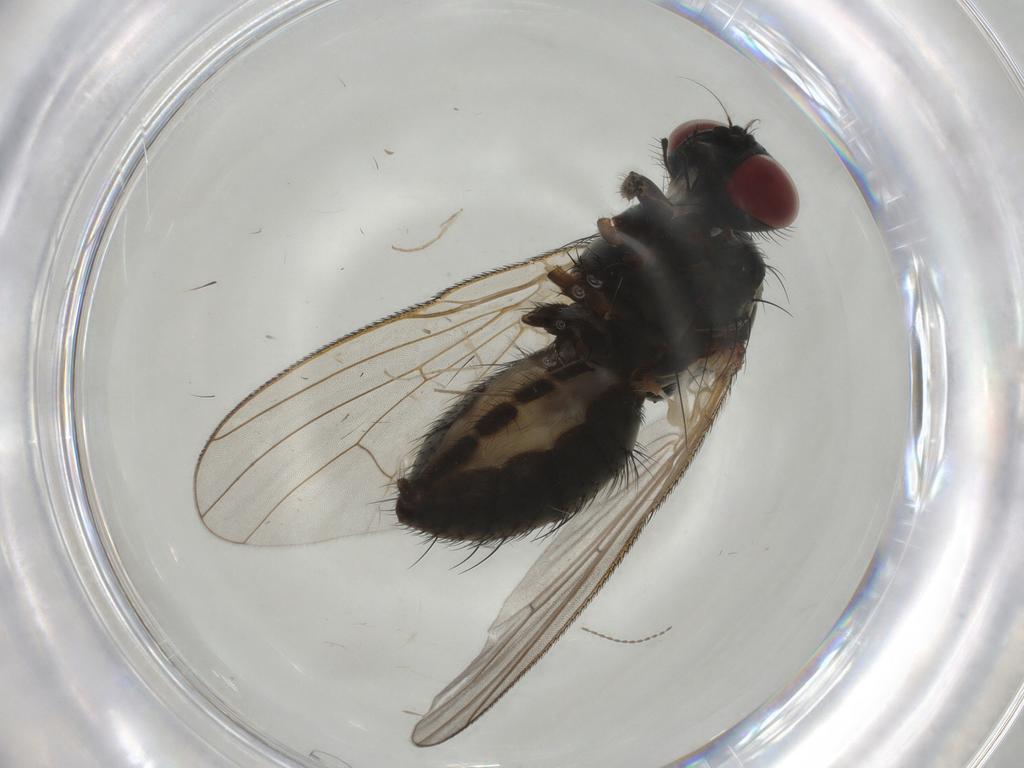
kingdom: Animalia
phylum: Arthropoda
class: Insecta
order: Diptera
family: Muscidae
